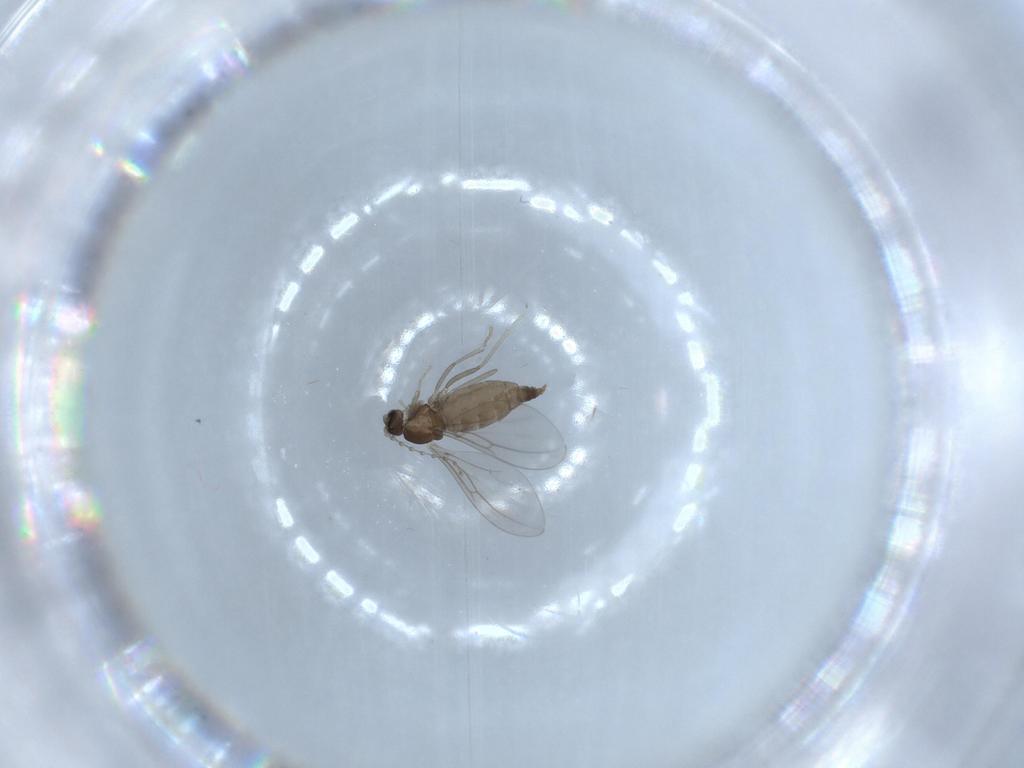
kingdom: Animalia
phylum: Arthropoda
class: Insecta
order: Diptera
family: Cecidomyiidae
